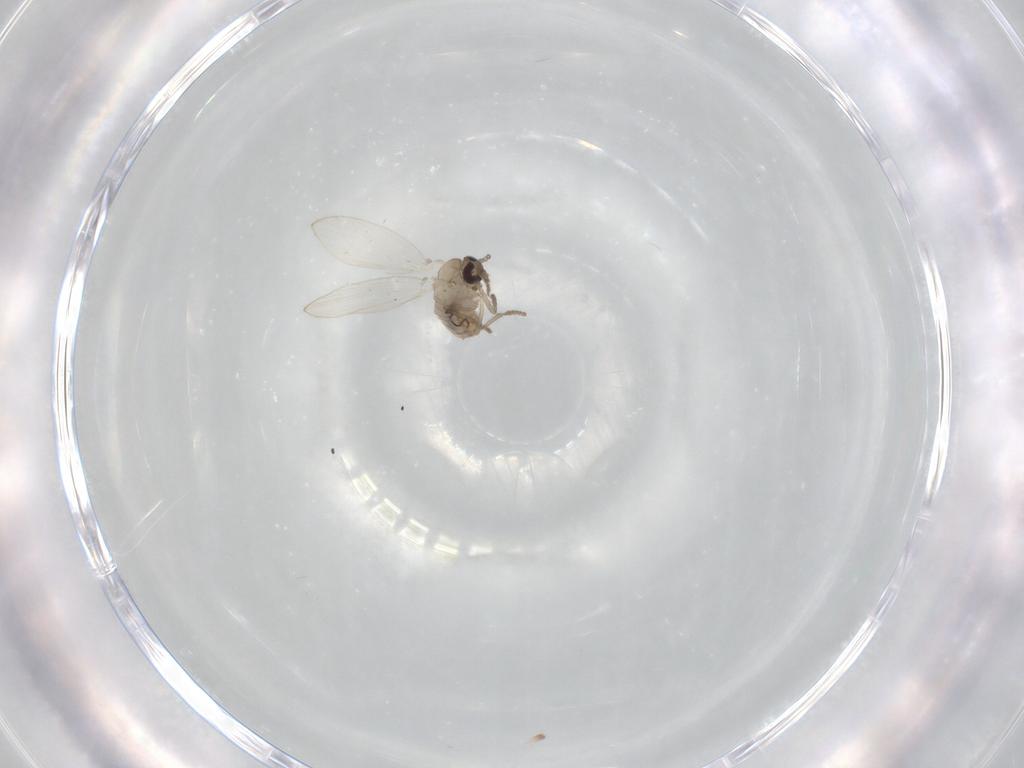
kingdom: Animalia
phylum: Arthropoda
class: Insecta
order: Diptera
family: Psychodidae
